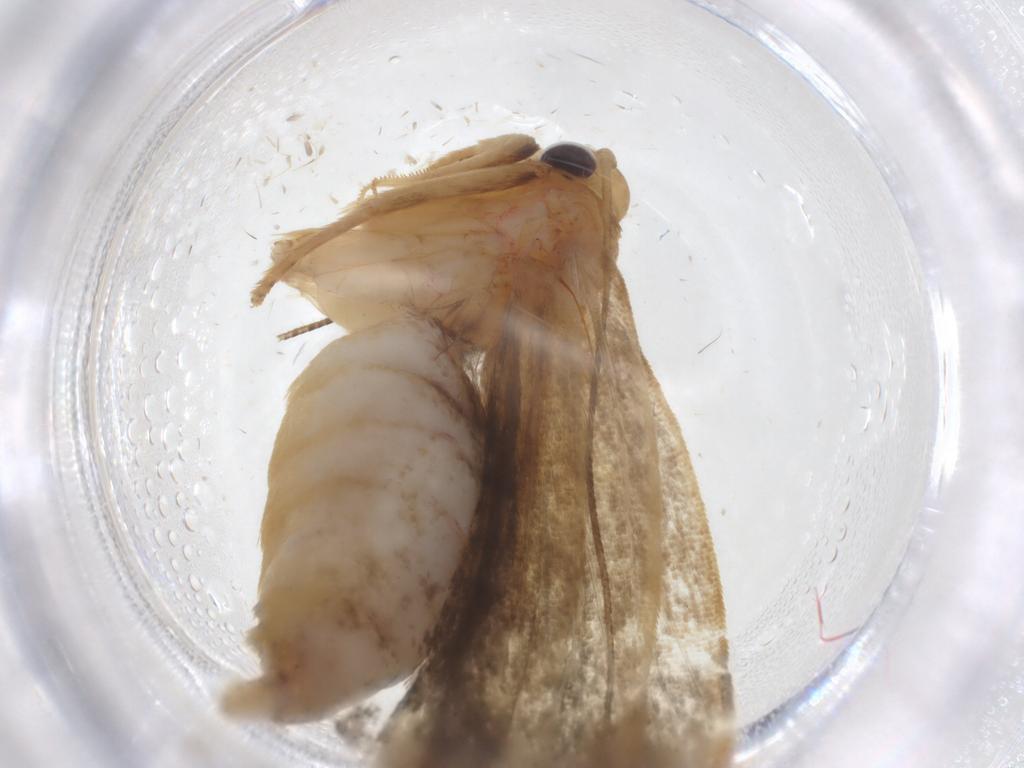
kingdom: Animalia
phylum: Arthropoda
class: Insecta
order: Lepidoptera
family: Depressariidae
